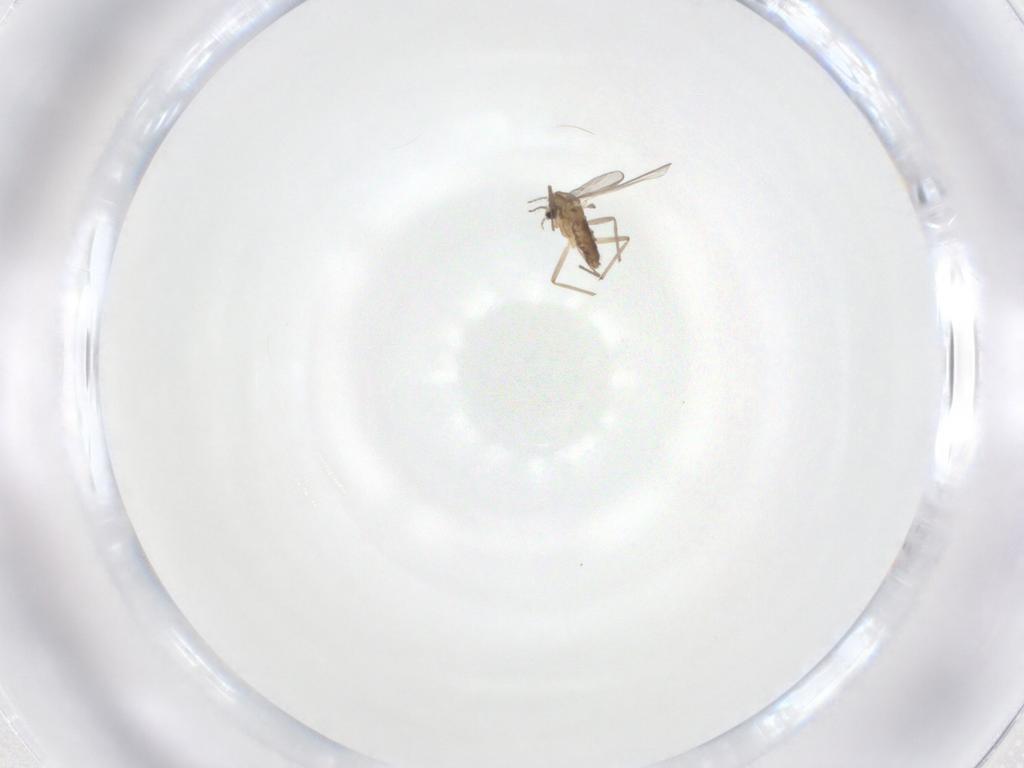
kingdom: Animalia
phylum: Arthropoda
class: Insecta
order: Diptera
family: Chironomidae
